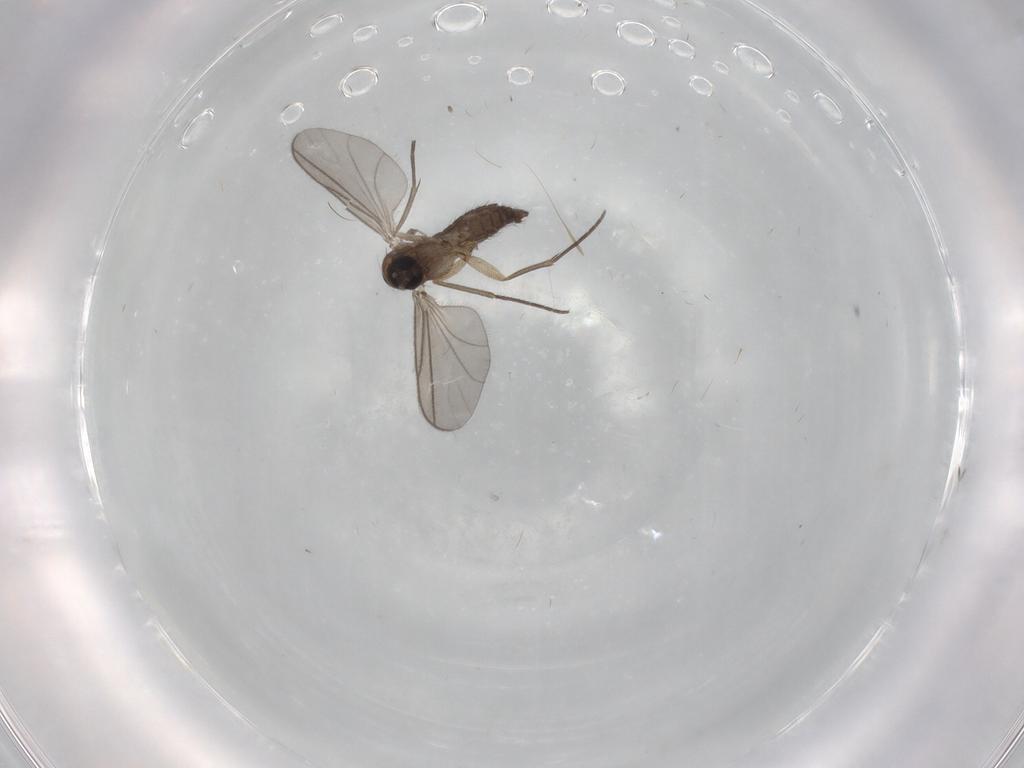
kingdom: Animalia
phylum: Arthropoda
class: Insecta
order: Diptera
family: Sciaridae
